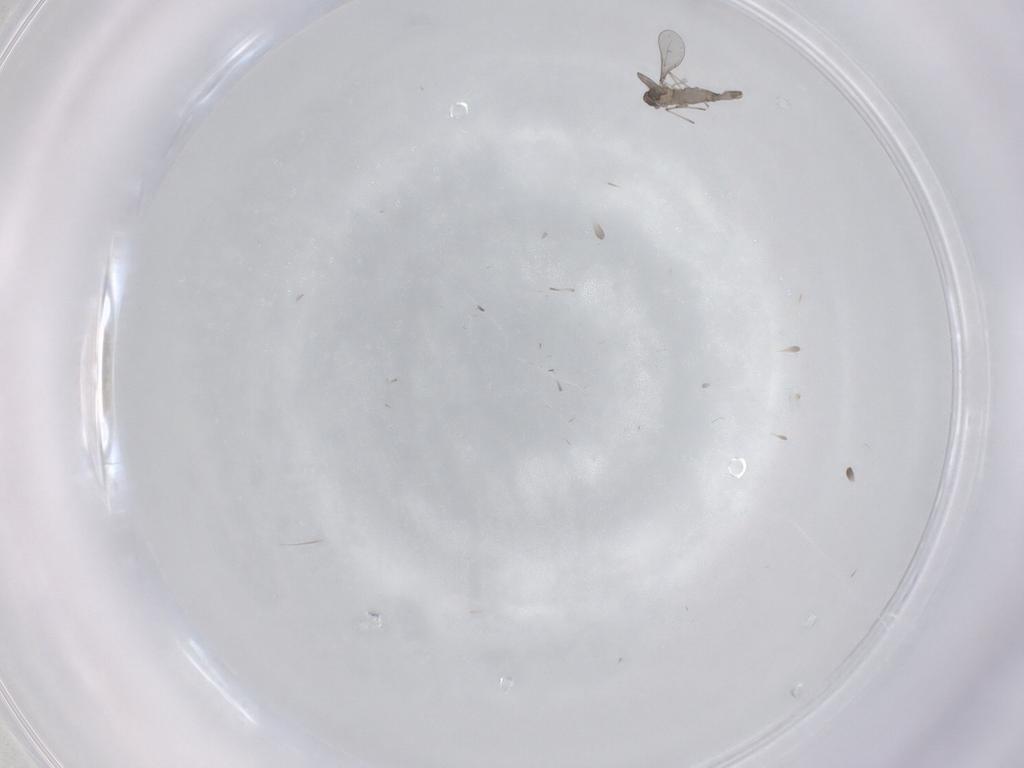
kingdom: Animalia
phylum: Arthropoda
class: Insecta
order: Diptera
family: Cecidomyiidae
